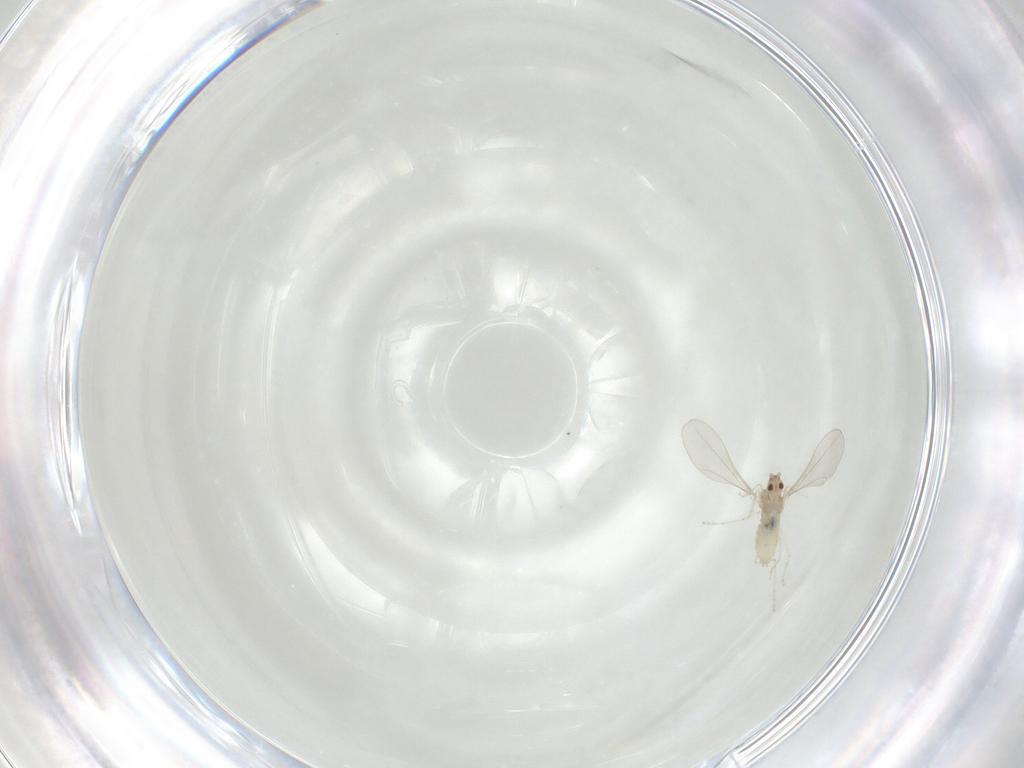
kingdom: Animalia
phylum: Arthropoda
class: Insecta
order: Diptera
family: Cecidomyiidae
